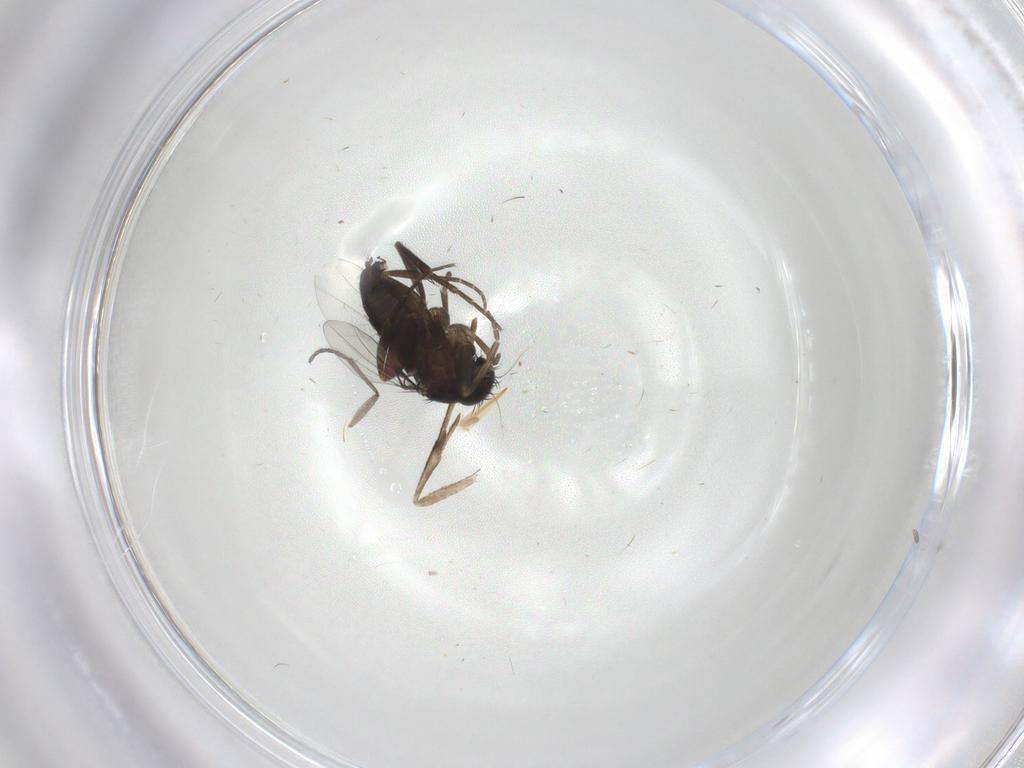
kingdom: Animalia
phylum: Arthropoda
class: Insecta
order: Diptera
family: Phoridae
